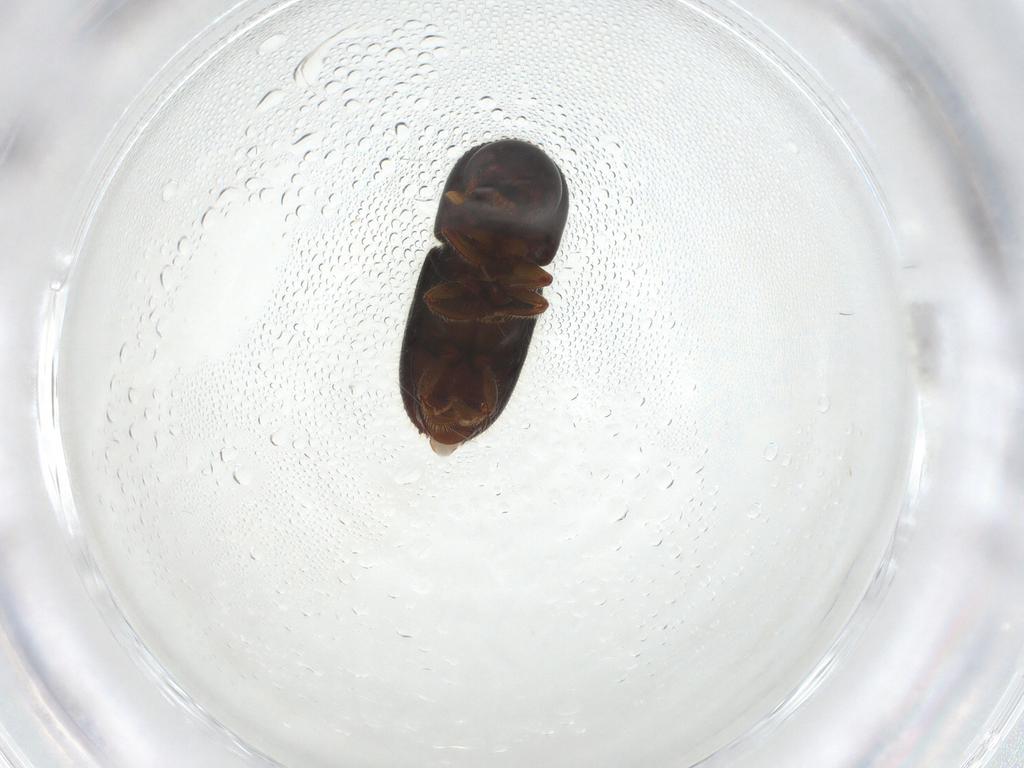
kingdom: Animalia
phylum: Arthropoda
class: Insecta
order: Coleoptera
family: Curculionidae
